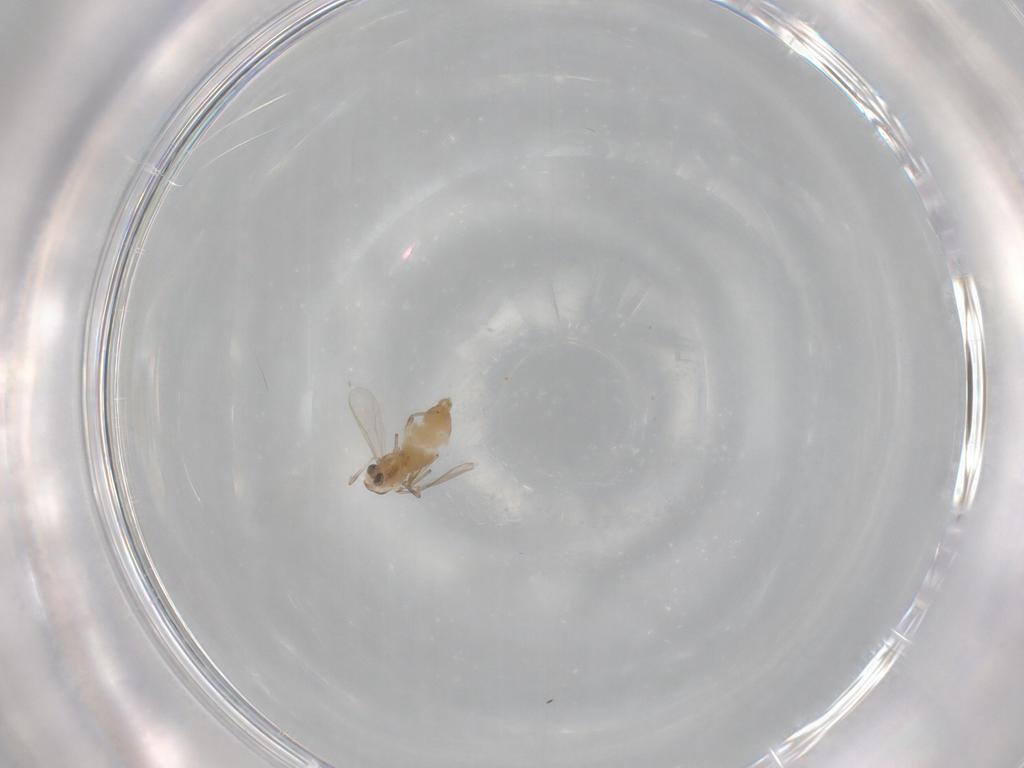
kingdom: Animalia
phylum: Arthropoda
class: Insecta
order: Diptera
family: Chironomidae
